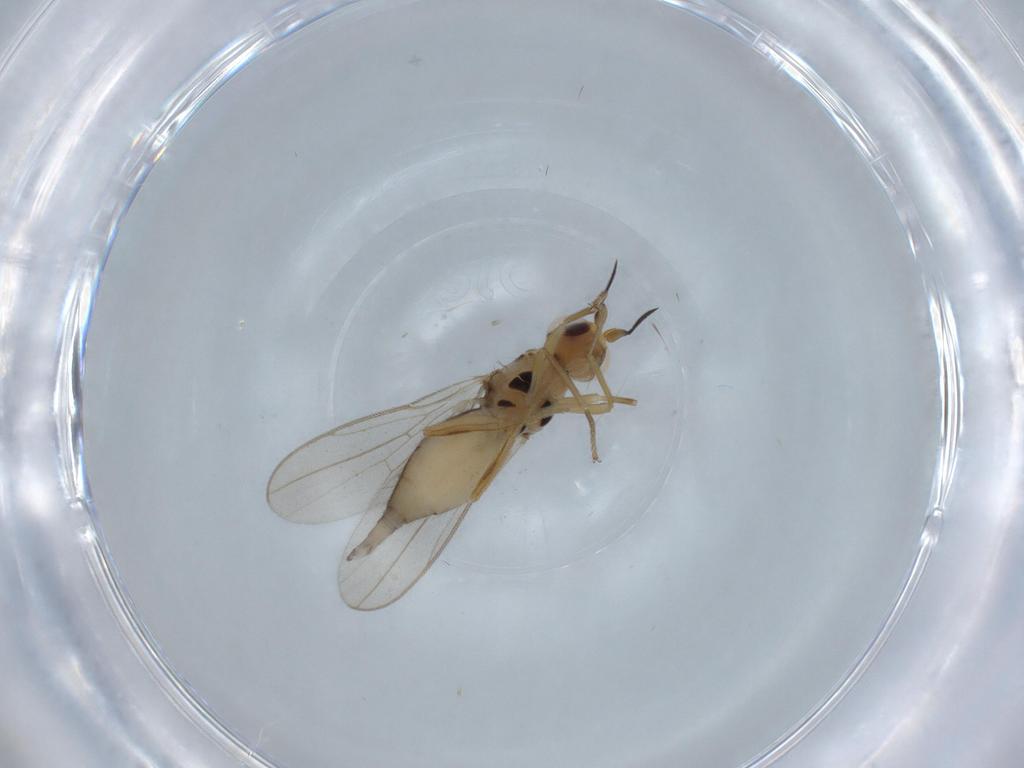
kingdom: Animalia
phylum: Arthropoda
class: Insecta
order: Diptera
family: Chloropidae
